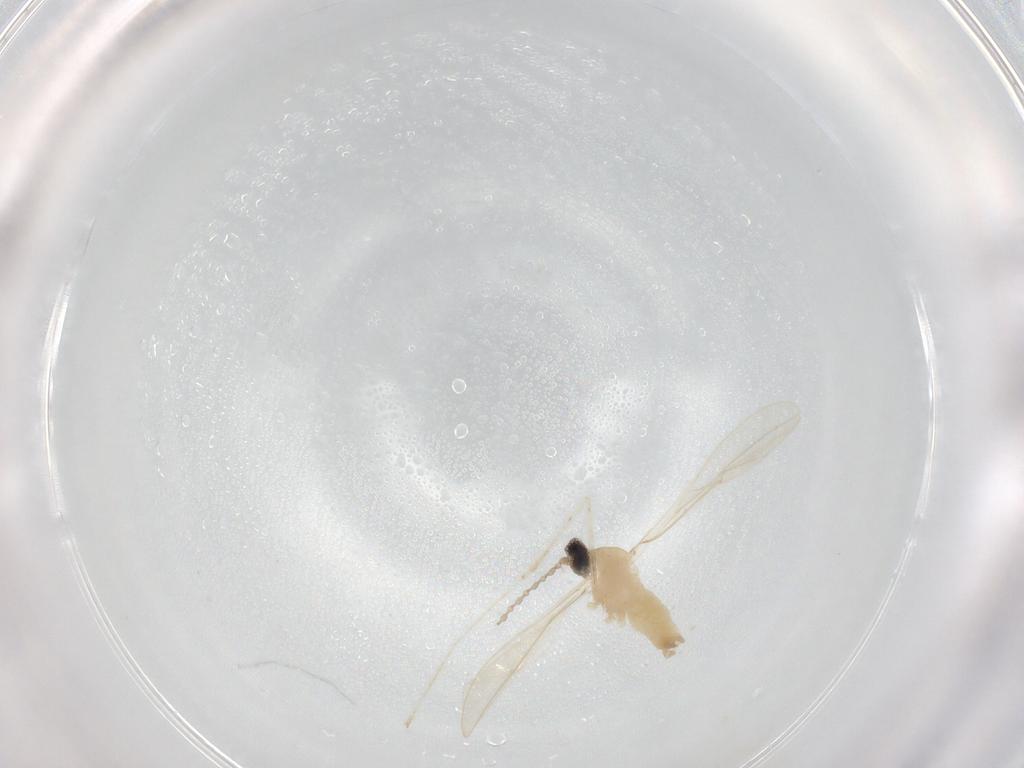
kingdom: Animalia
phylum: Arthropoda
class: Insecta
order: Diptera
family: Cecidomyiidae
